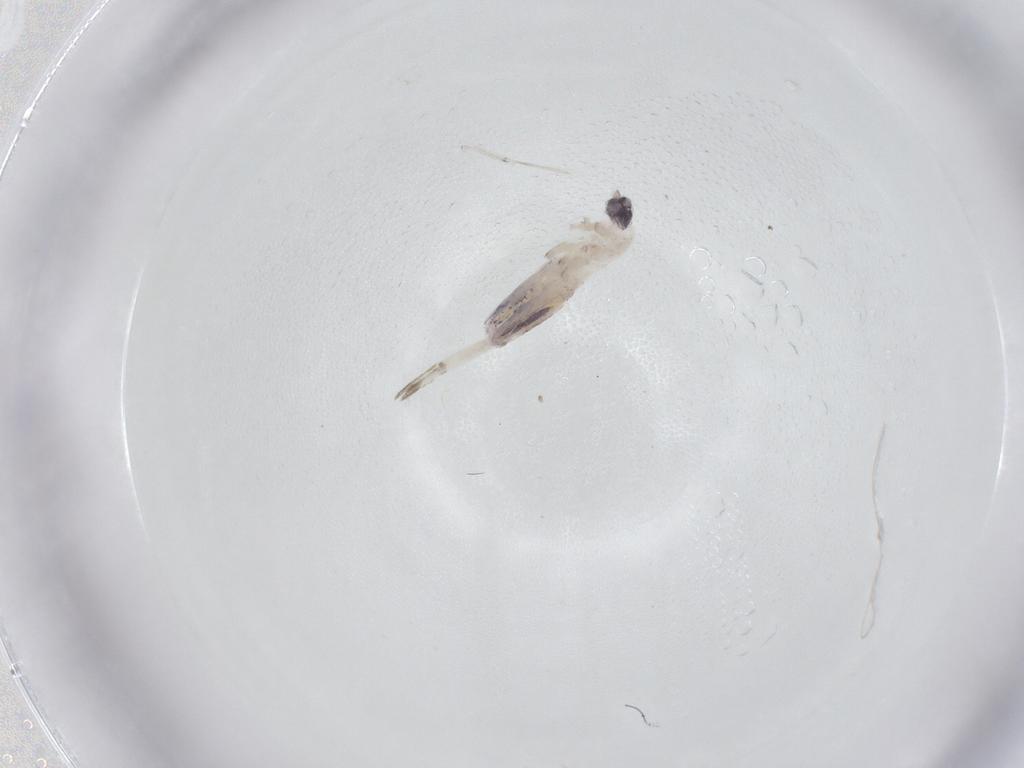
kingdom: Animalia
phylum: Arthropoda
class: Collembola
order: Entomobryomorpha
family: Entomobryidae
